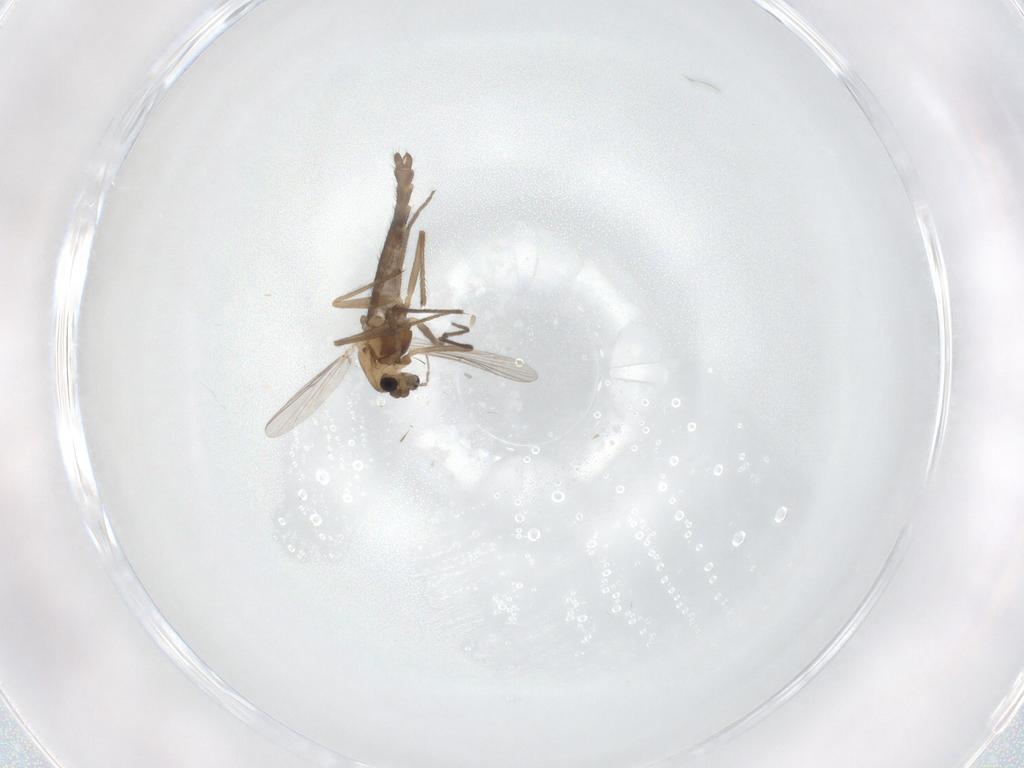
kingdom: Animalia
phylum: Arthropoda
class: Insecta
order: Diptera
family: Chironomidae
